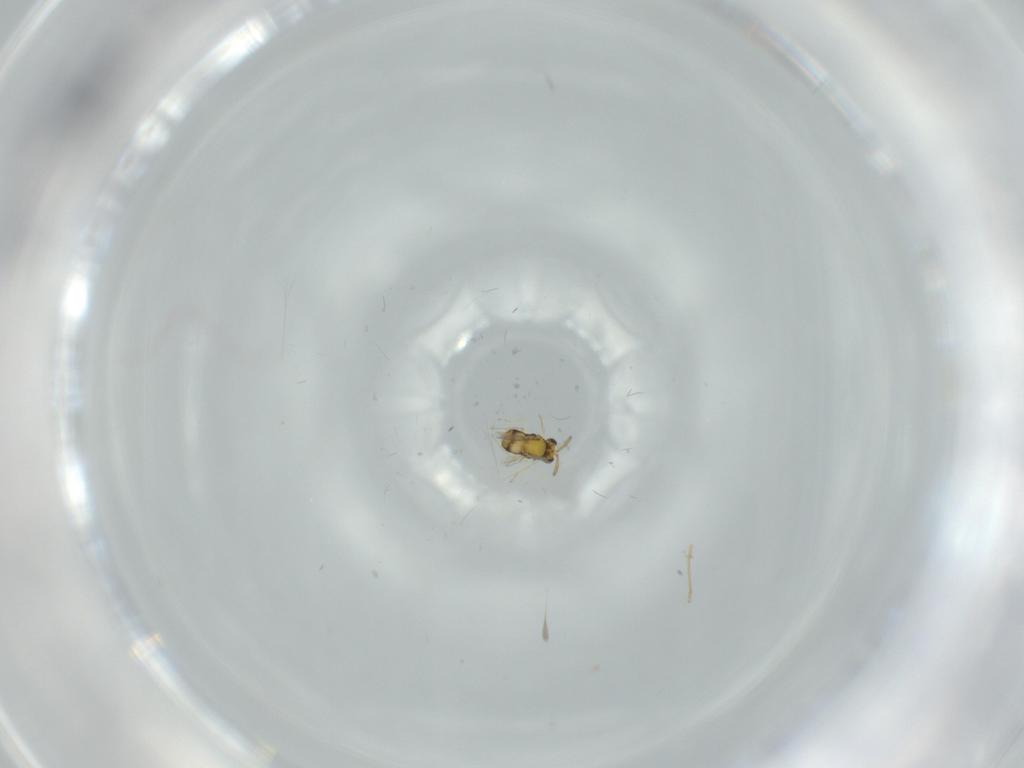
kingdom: Animalia
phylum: Arthropoda
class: Insecta
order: Hymenoptera
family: Aphelinidae
